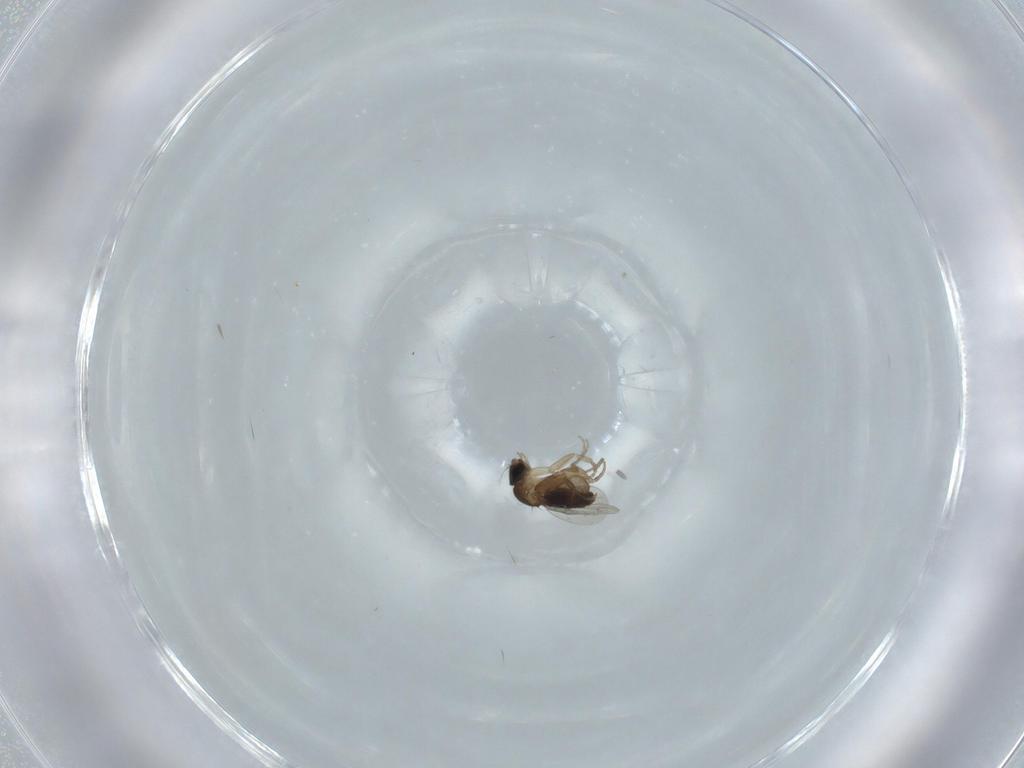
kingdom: Animalia
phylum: Arthropoda
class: Insecta
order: Diptera
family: Phoridae
